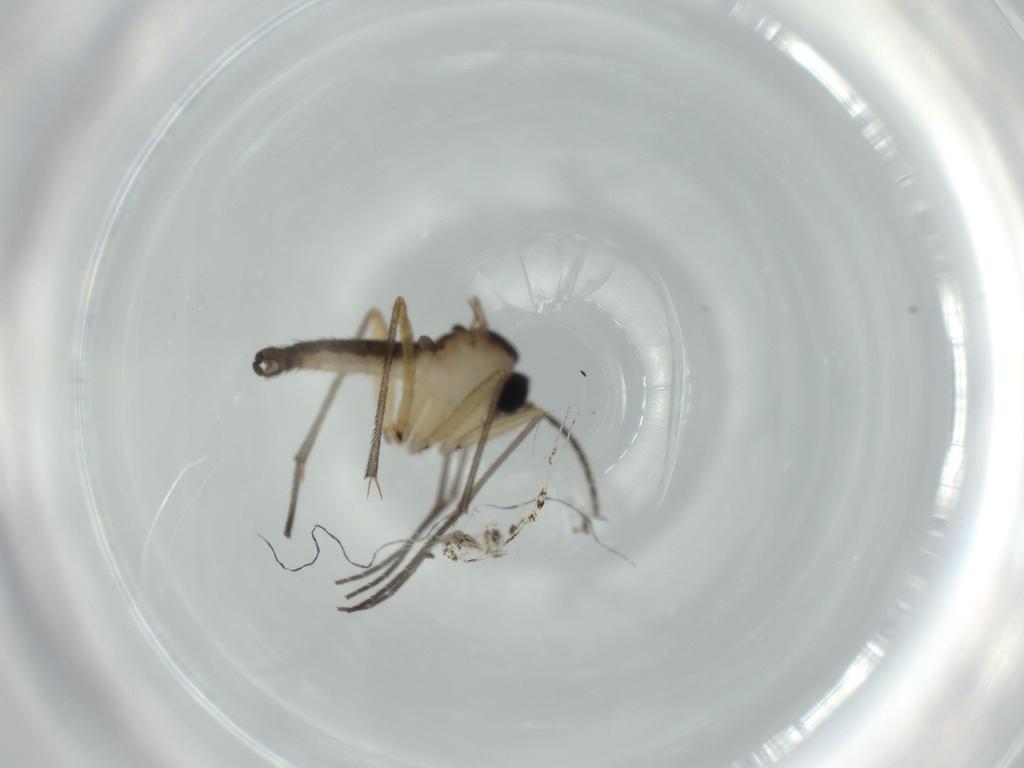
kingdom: Animalia
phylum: Arthropoda
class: Insecta
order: Diptera
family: Sciaridae
